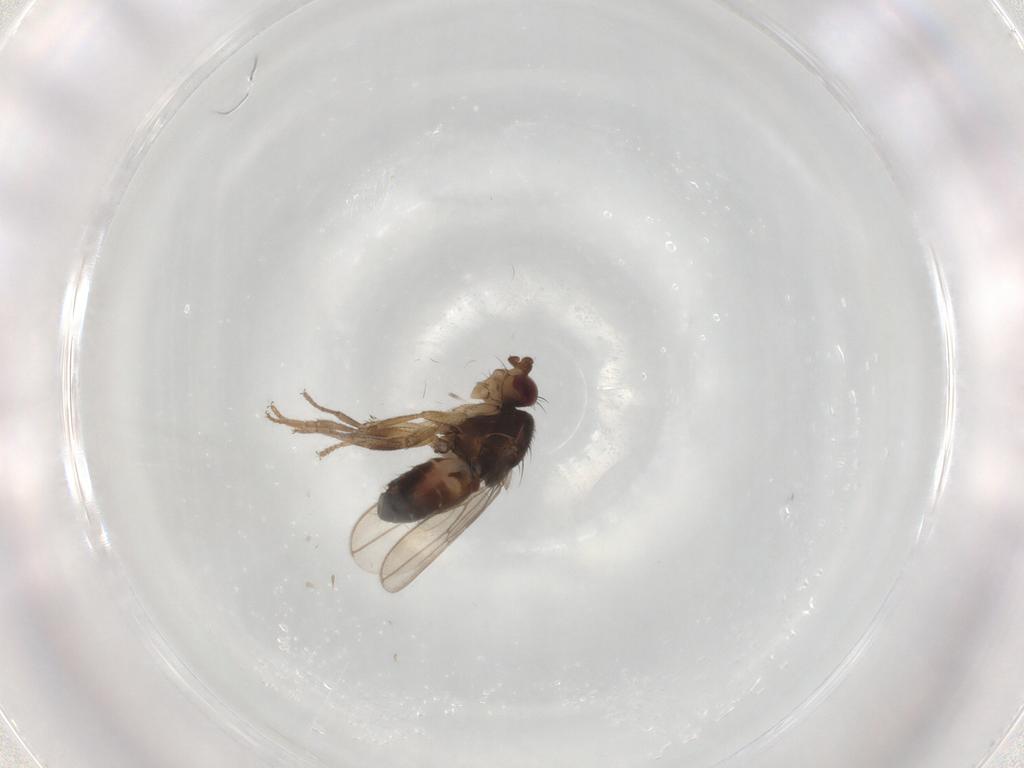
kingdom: Animalia
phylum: Arthropoda
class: Insecta
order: Diptera
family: Sphaeroceridae
